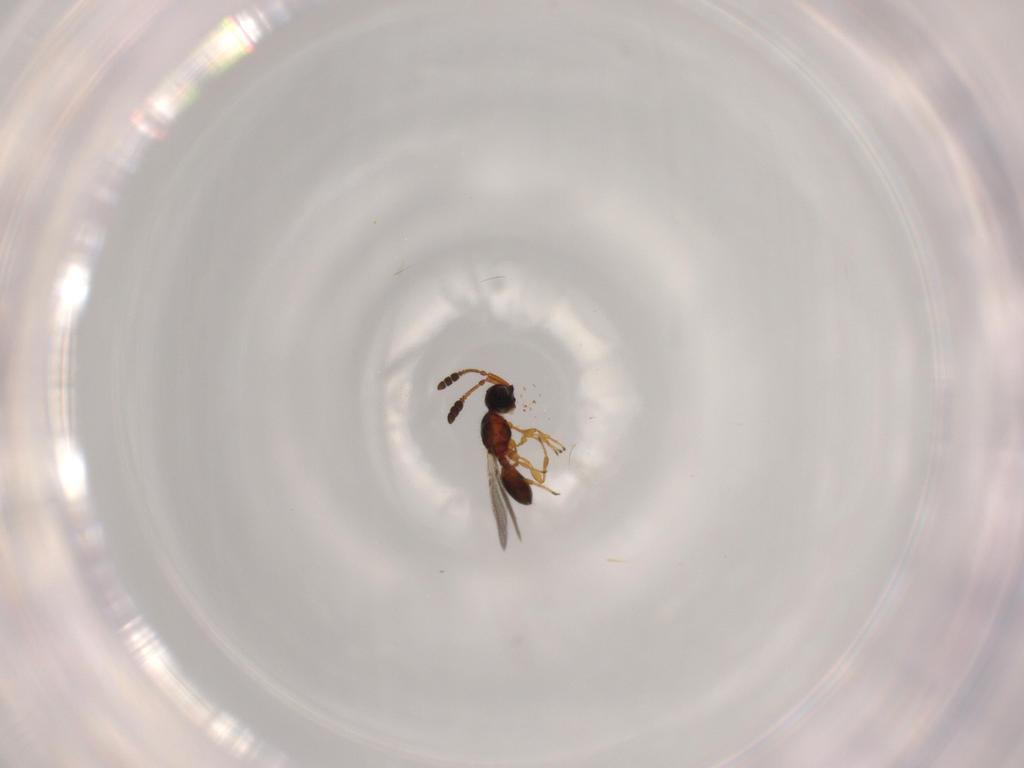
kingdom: Animalia
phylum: Arthropoda
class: Insecta
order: Hymenoptera
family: Diapriidae
